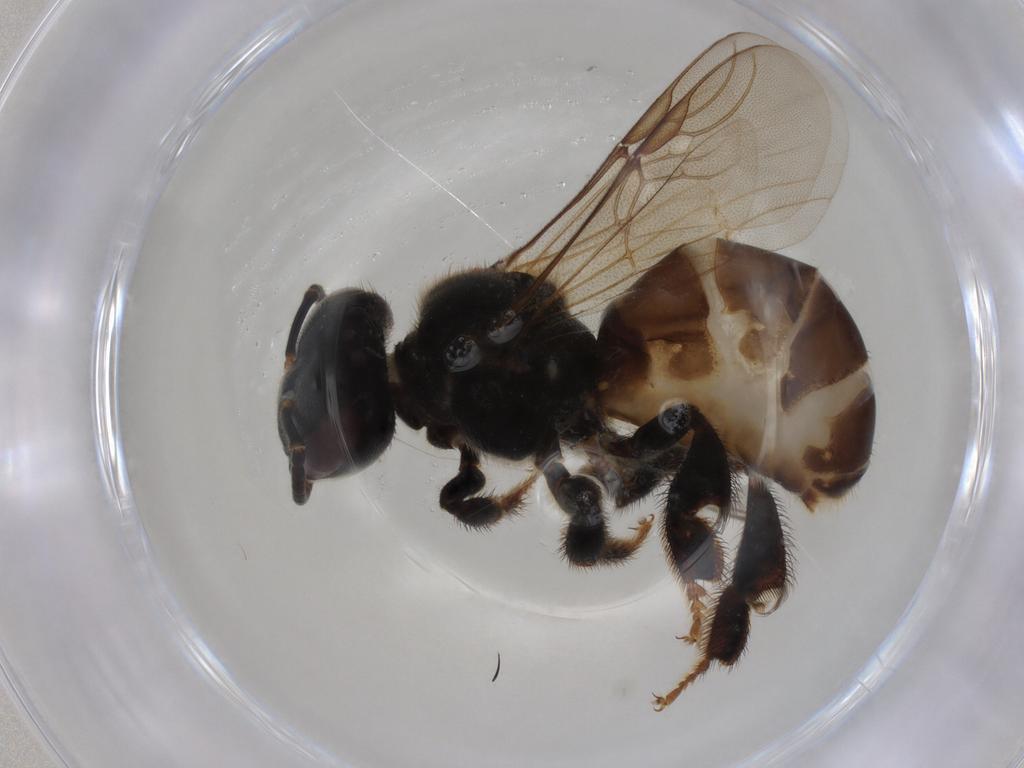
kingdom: Animalia
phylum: Arthropoda
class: Insecta
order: Hymenoptera
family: Apidae
